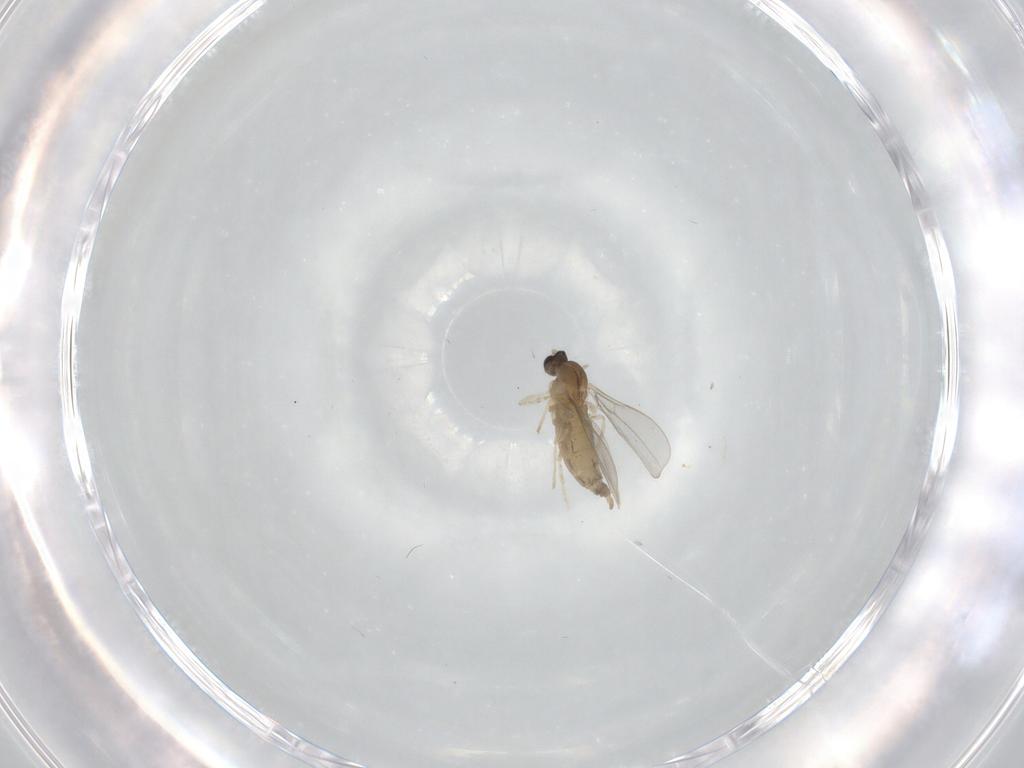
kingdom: Animalia
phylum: Arthropoda
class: Insecta
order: Diptera
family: Cecidomyiidae
